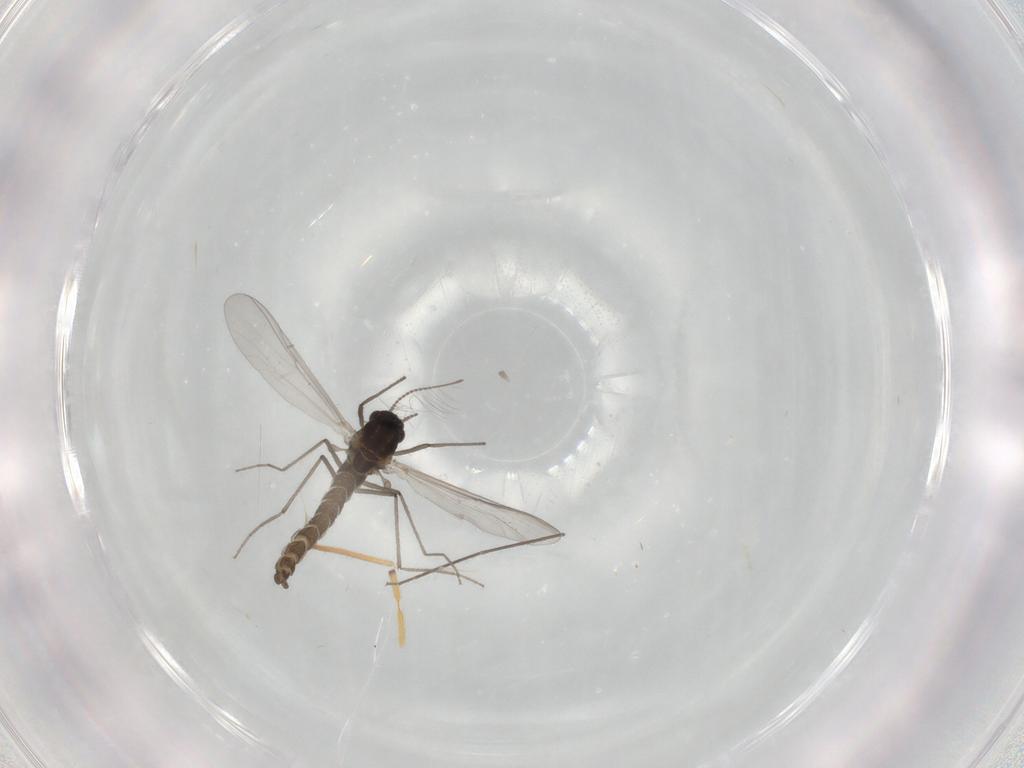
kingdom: Animalia
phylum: Arthropoda
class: Insecta
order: Diptera
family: Chironomidae
